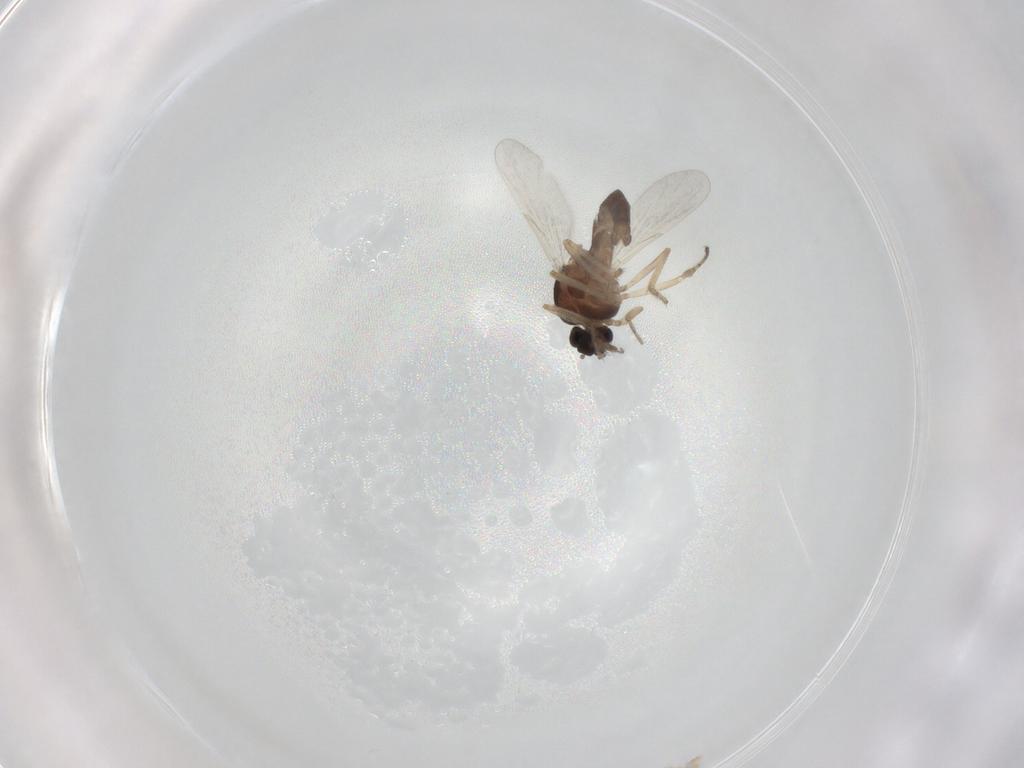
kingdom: Animalia
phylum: Arthropoda
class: Insecta
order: Diptera
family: Ceratopogonidae
